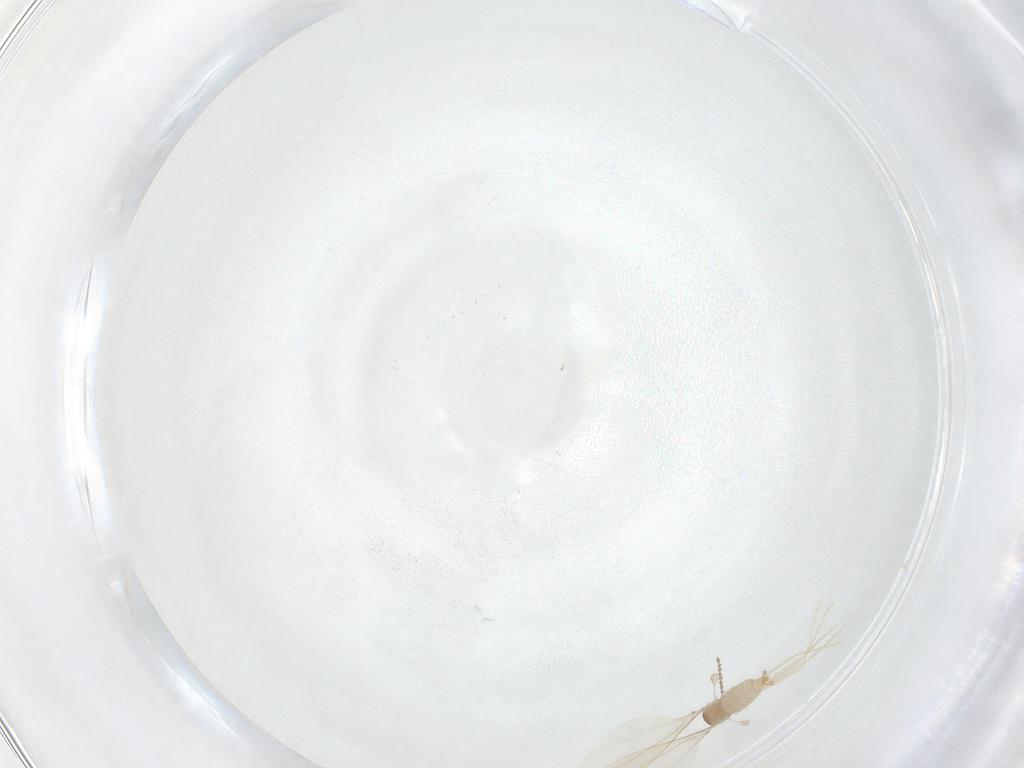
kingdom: Animalia
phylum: Arthropoda
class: Insecta
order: Diptera
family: Cecidomyiidae
